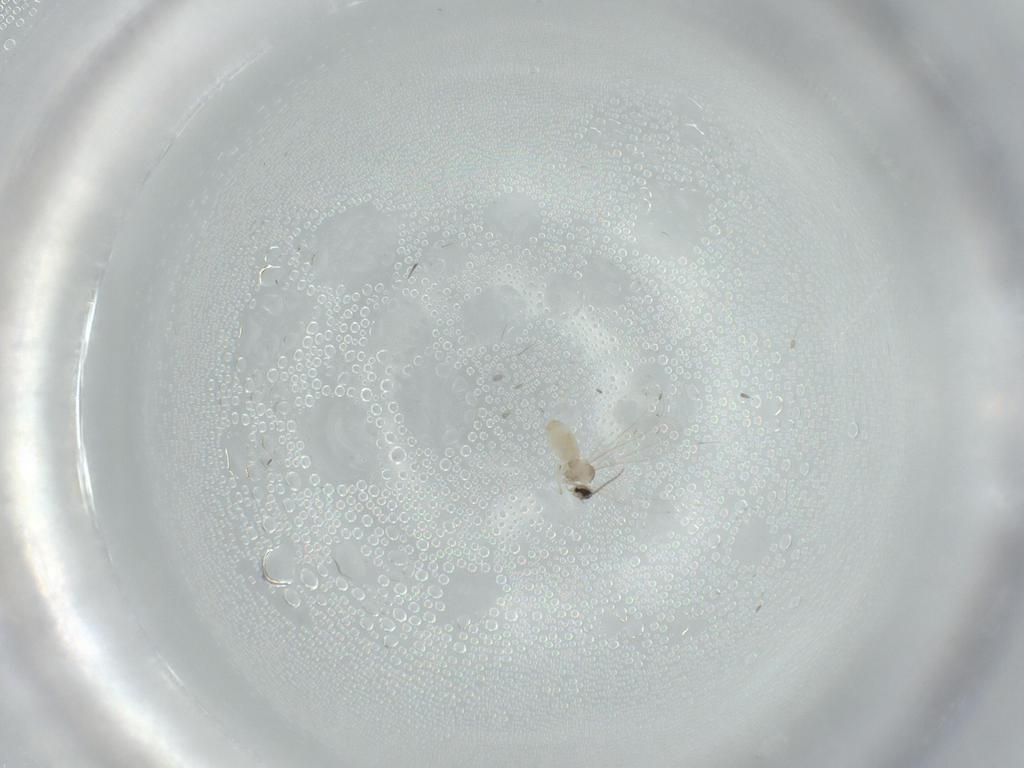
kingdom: Animalia
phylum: Arthropoda
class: Insecta
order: Diptera
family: Cecidomyiidae
